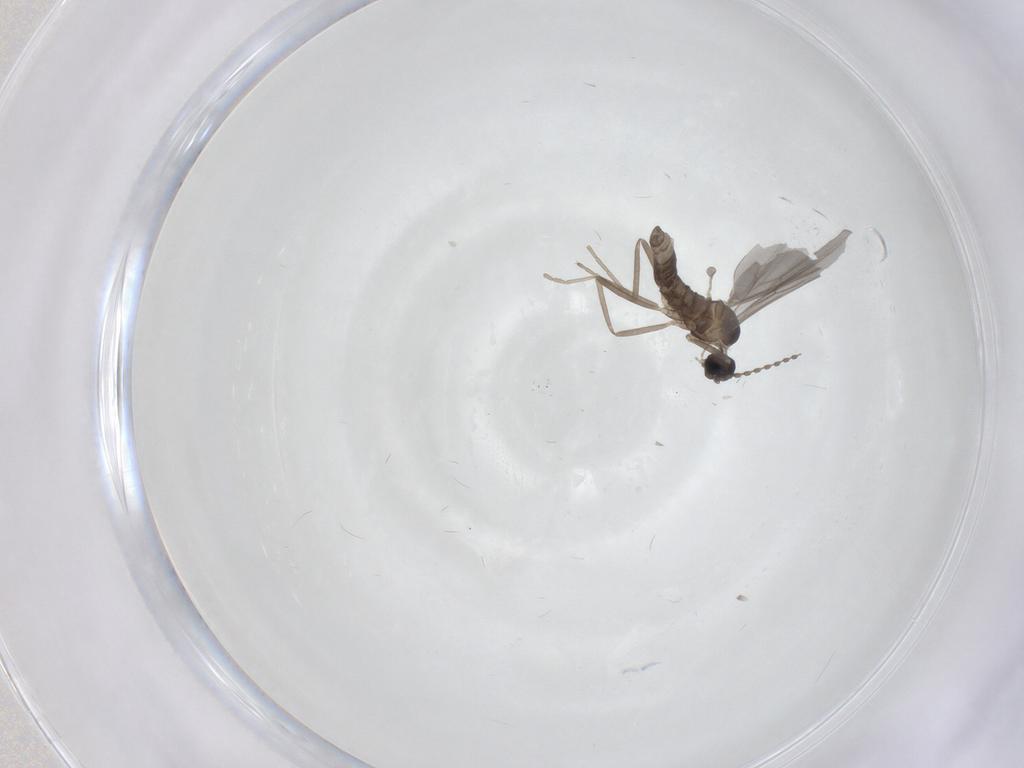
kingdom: Animalia
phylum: Arthropoda
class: Insecta
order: Diptera
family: Cecidomyiidae
